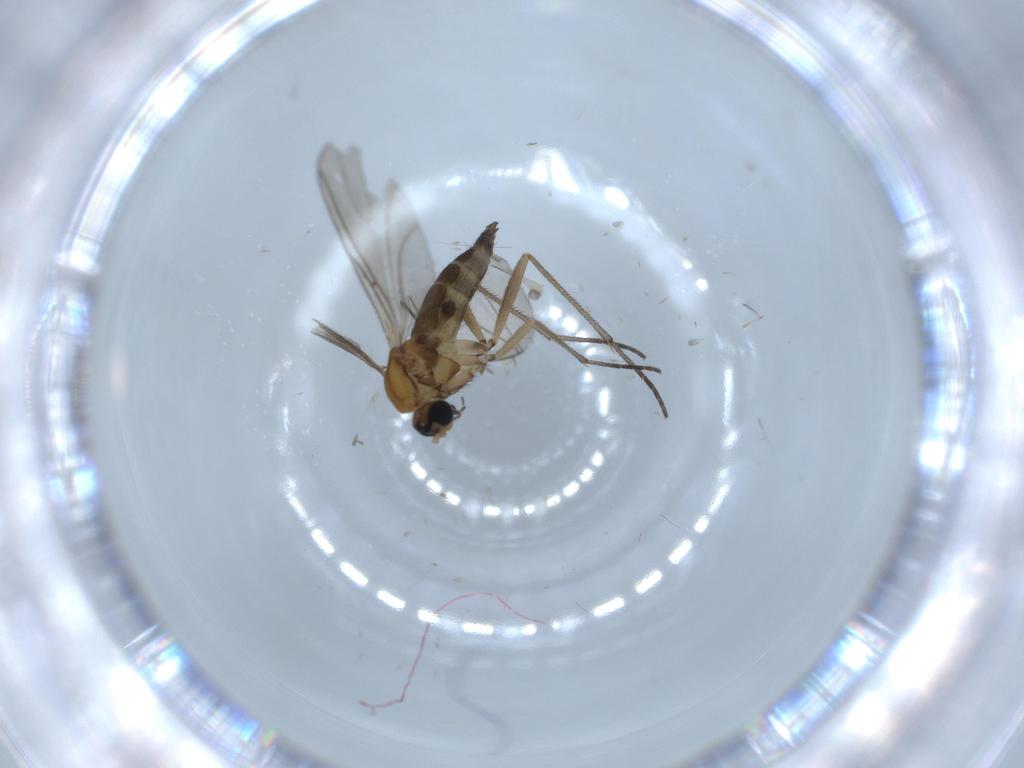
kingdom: Animalia
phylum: Arthropoda
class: Insecta
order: Diptera
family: Sciaridae
